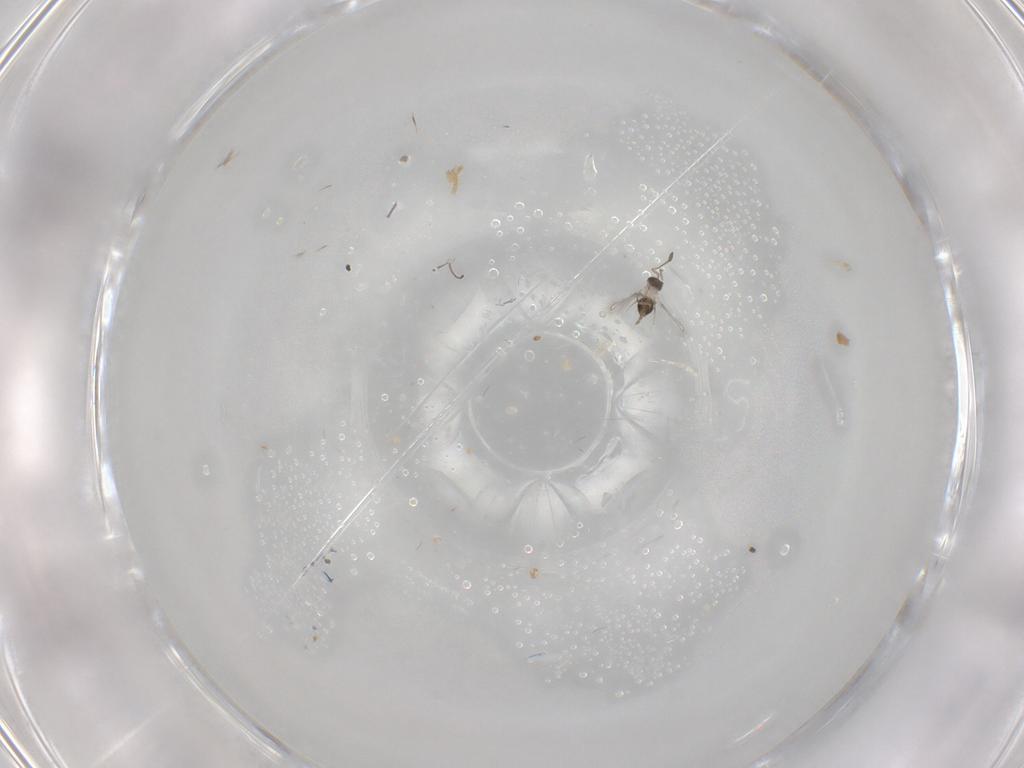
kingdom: Animalia
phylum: Arthropoda
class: Insecta
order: Hymenoptera
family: Mymaridae
